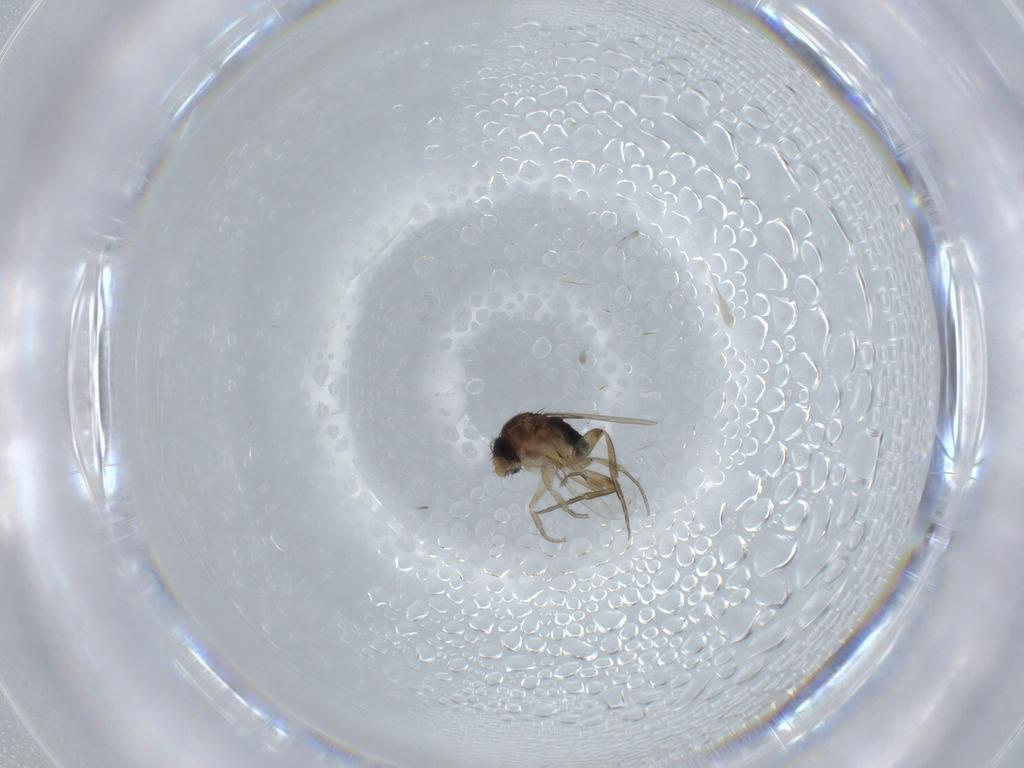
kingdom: Animalia
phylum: Arthropoda
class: Insecta
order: Diptera
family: Phoridae
